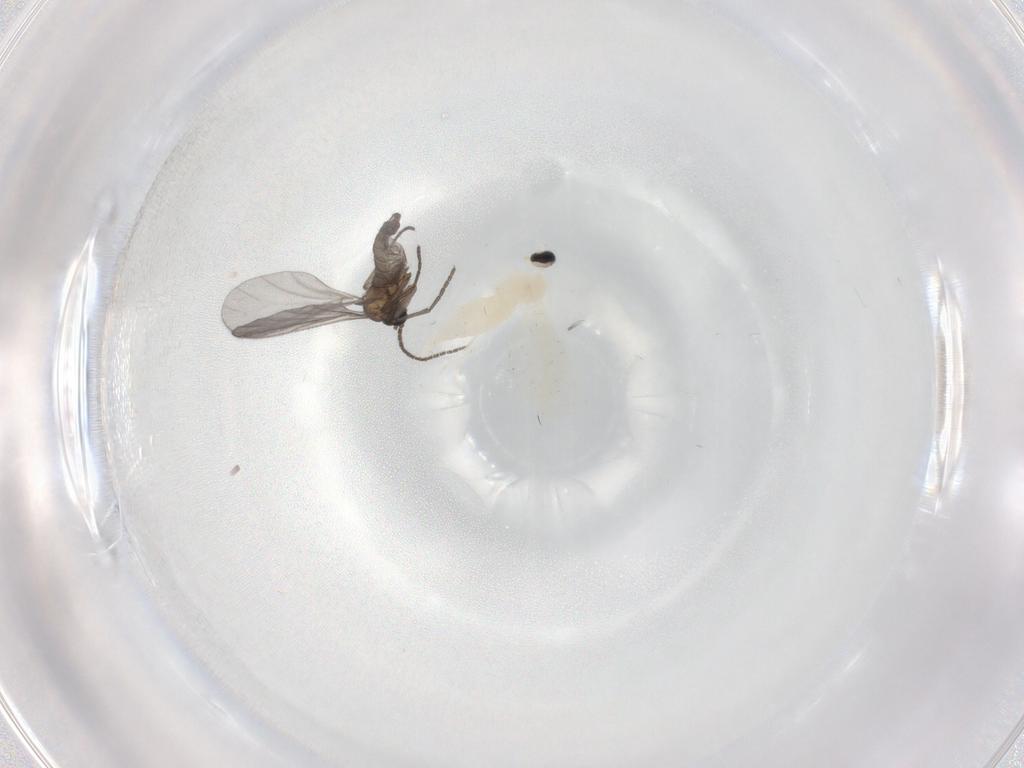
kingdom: Animalia
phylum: Arthropoda
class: Insecta
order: Diptera
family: Cecidomyiidae
